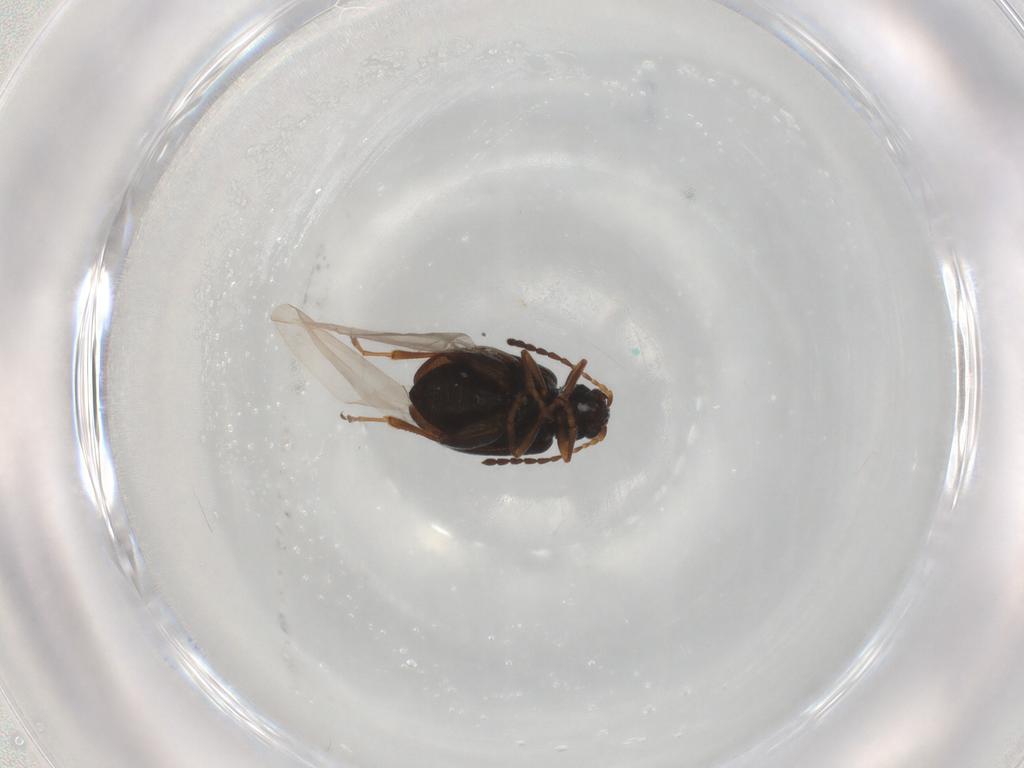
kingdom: Animalia
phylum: Arthropoda
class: Insecta
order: Coleoptera
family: Chrysomelidae
